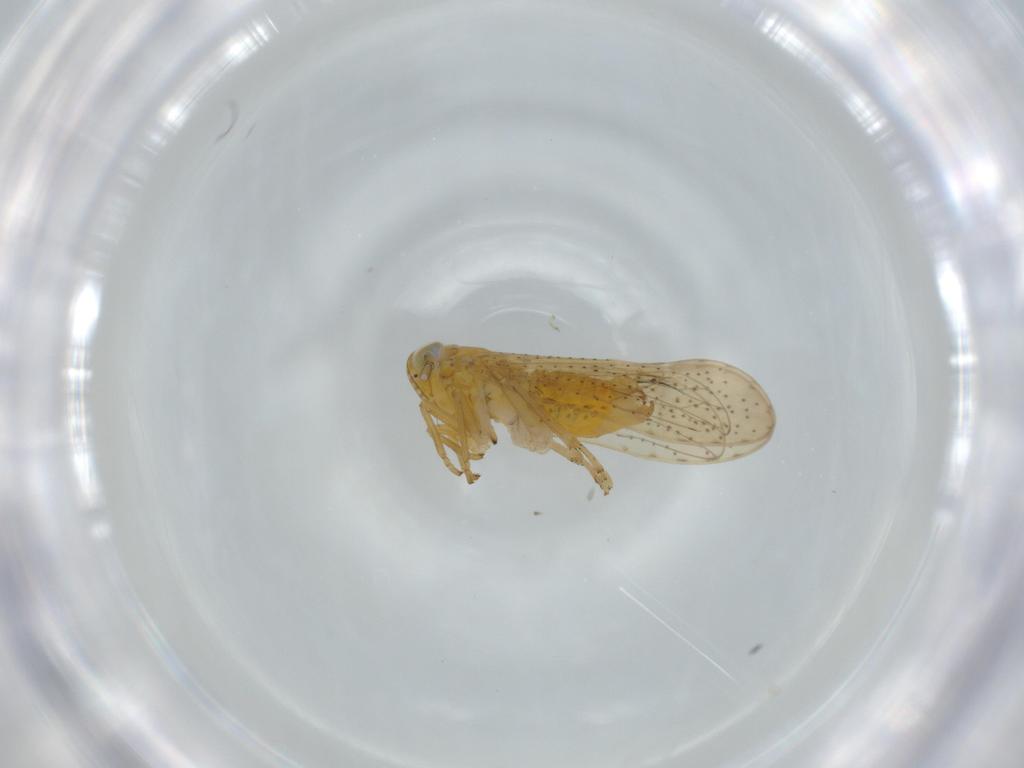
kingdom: Animalia
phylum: Arthropoda
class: Insecta
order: Hemiptera
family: Delphacidae
